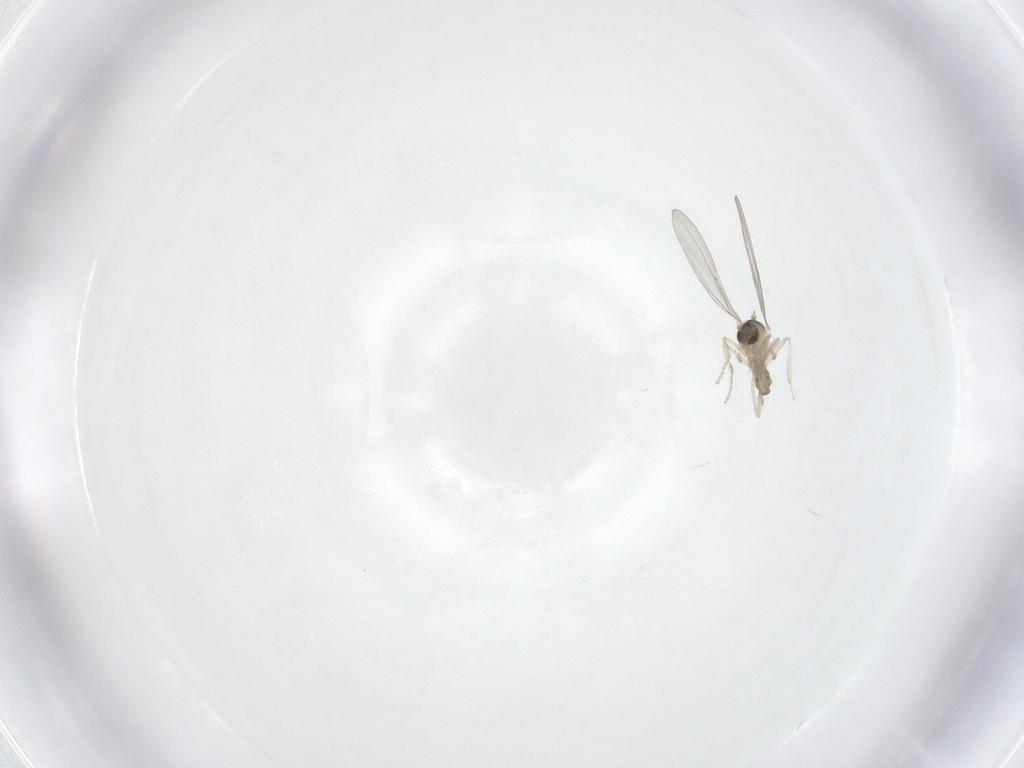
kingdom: Animalia
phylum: Arthropoda
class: Insecta
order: Diptera
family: Cecidomyiidae
